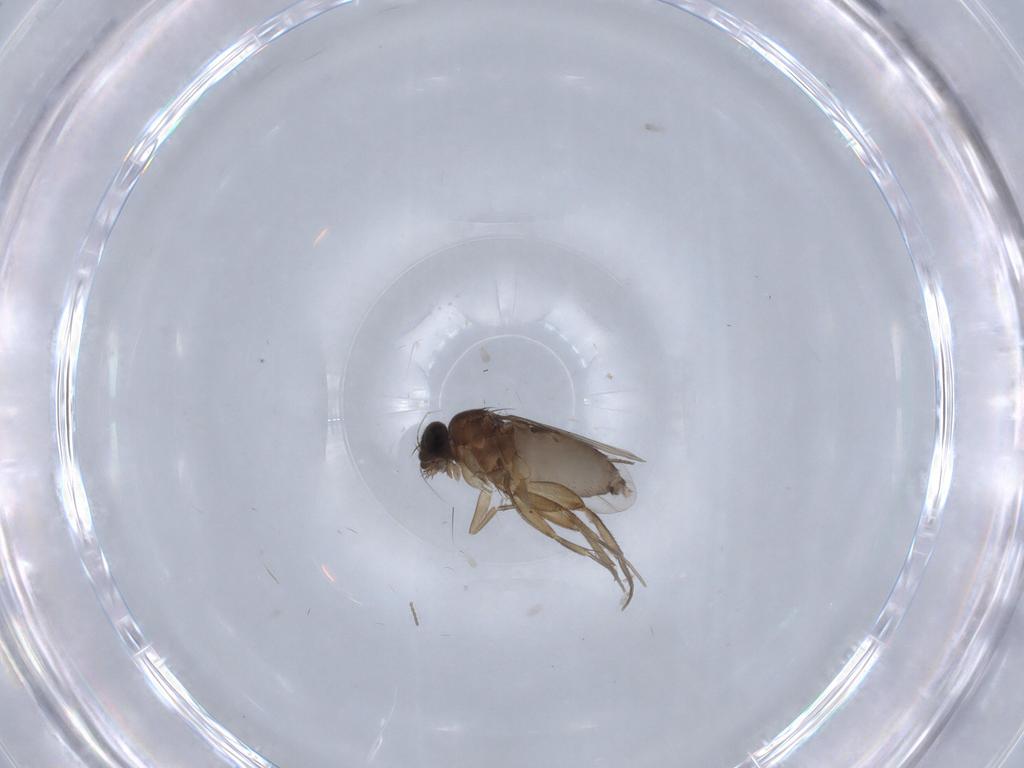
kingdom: Animalia
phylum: Arthropoda
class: Insecta
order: Diptera
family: Cecidomyiidae
